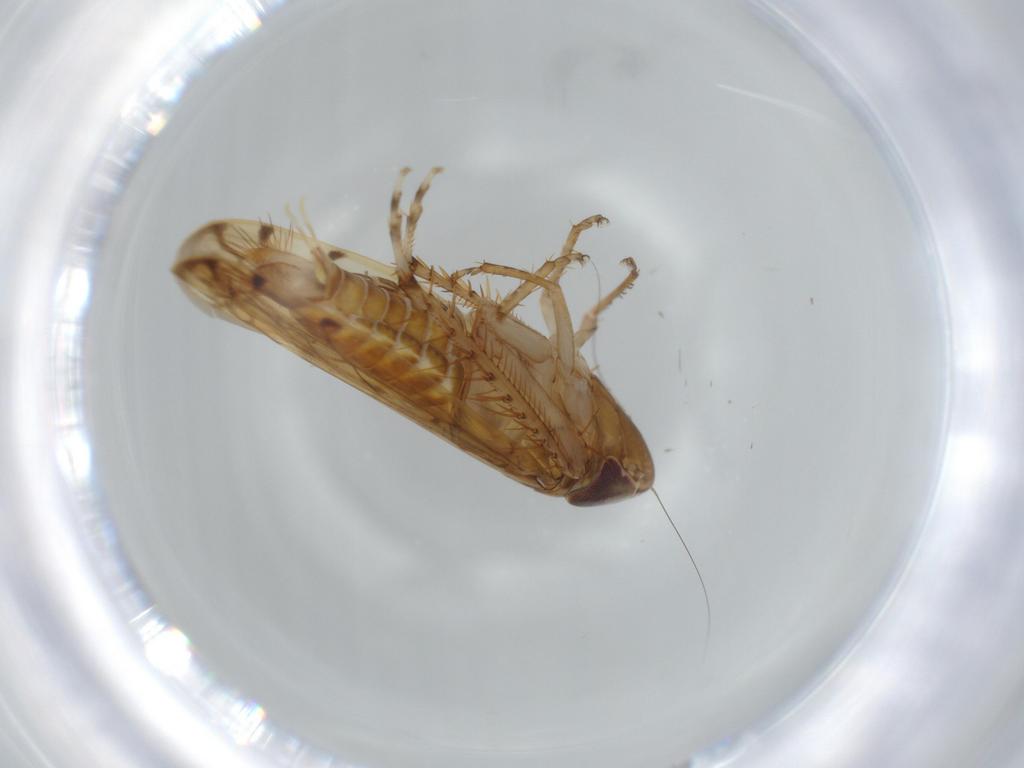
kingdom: Animalia
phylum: Arthropoda
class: Insecta
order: Hemiptera
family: Cicadellidae
